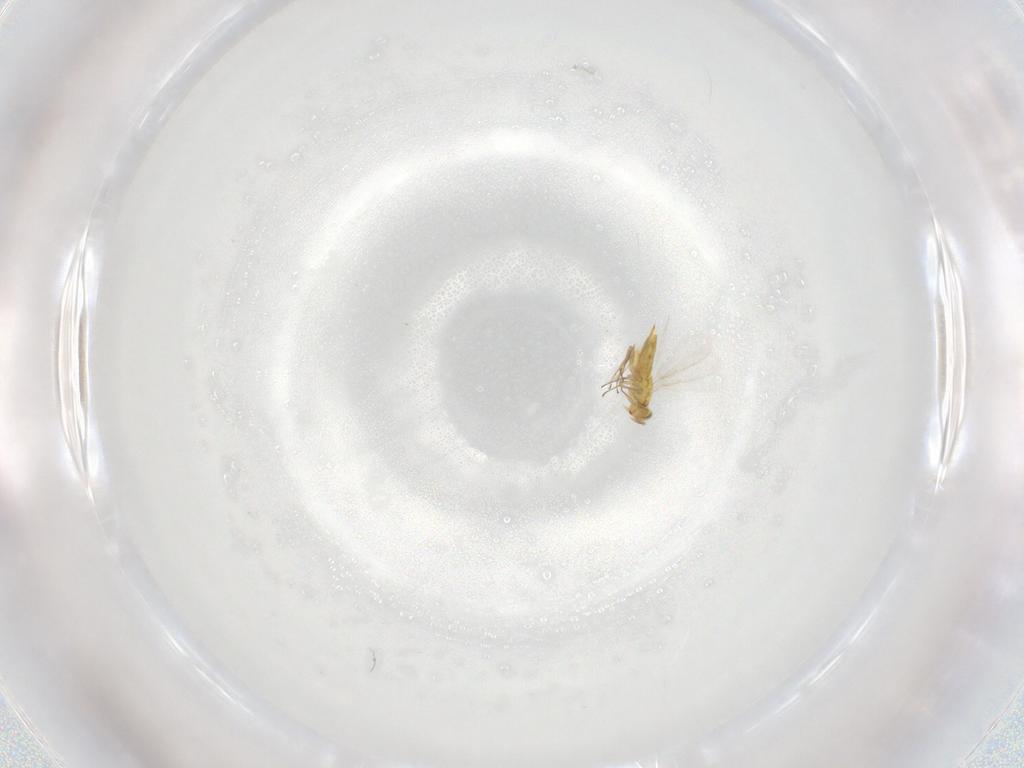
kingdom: Animalia
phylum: Arthropoda
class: Insecta
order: Hymenoptera
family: Aphelinidae
